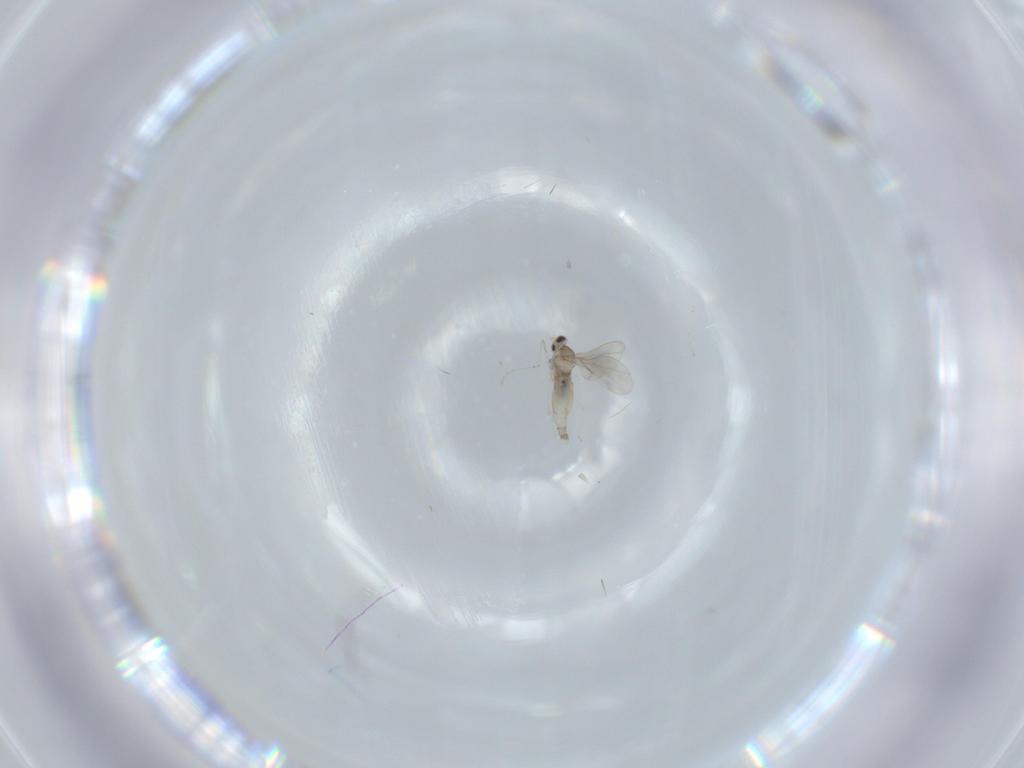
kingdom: Animalia
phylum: Arthropoda
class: Insecta
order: Diptera
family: Cecidomyiidae
